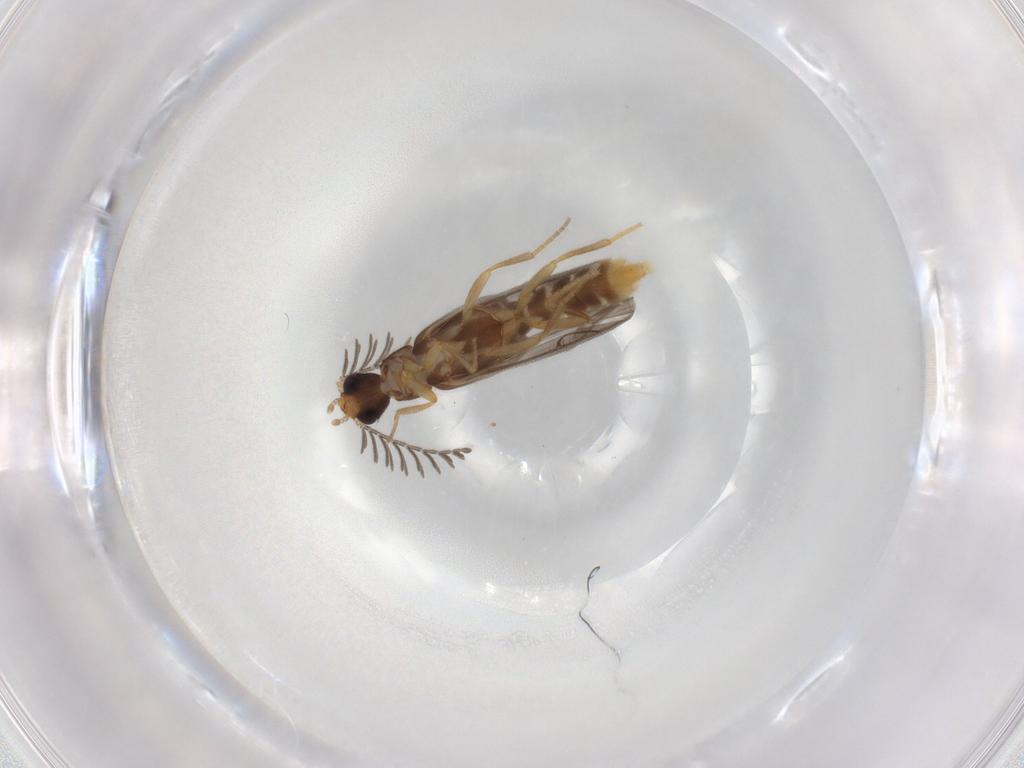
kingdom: Animalia
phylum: Arthropoda
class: Insecta
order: Coleoptera
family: Phengodidae
